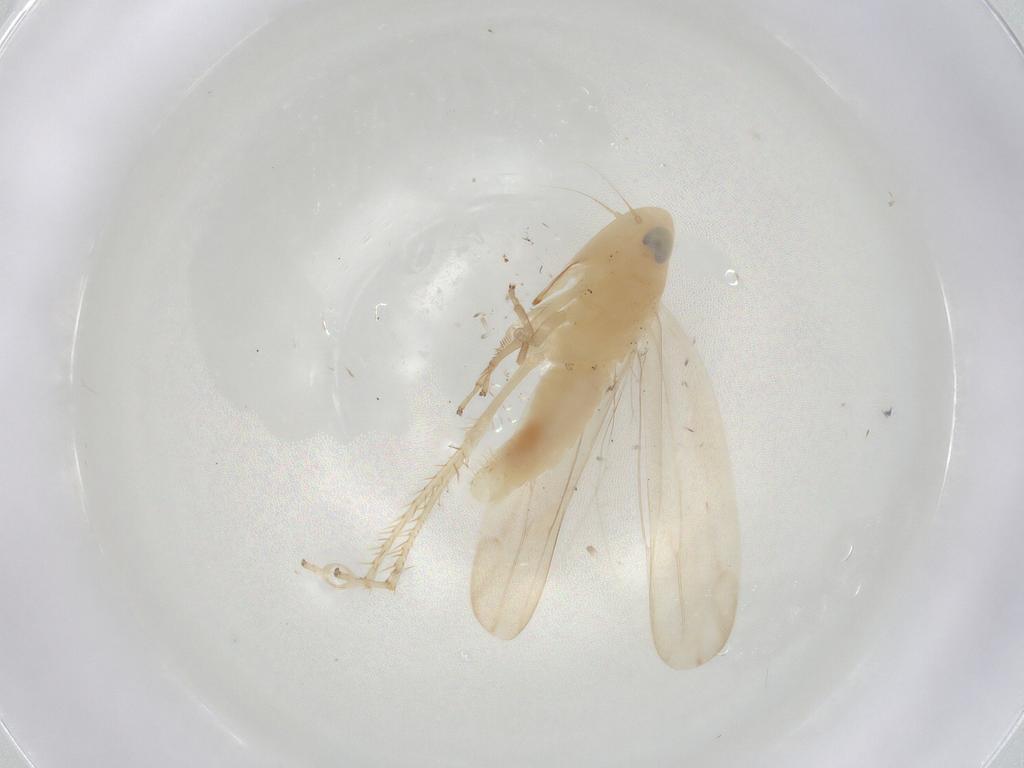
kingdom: Animalia
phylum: Arthropoda
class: Insecta
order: Hemiptera
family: Cicadellidae
